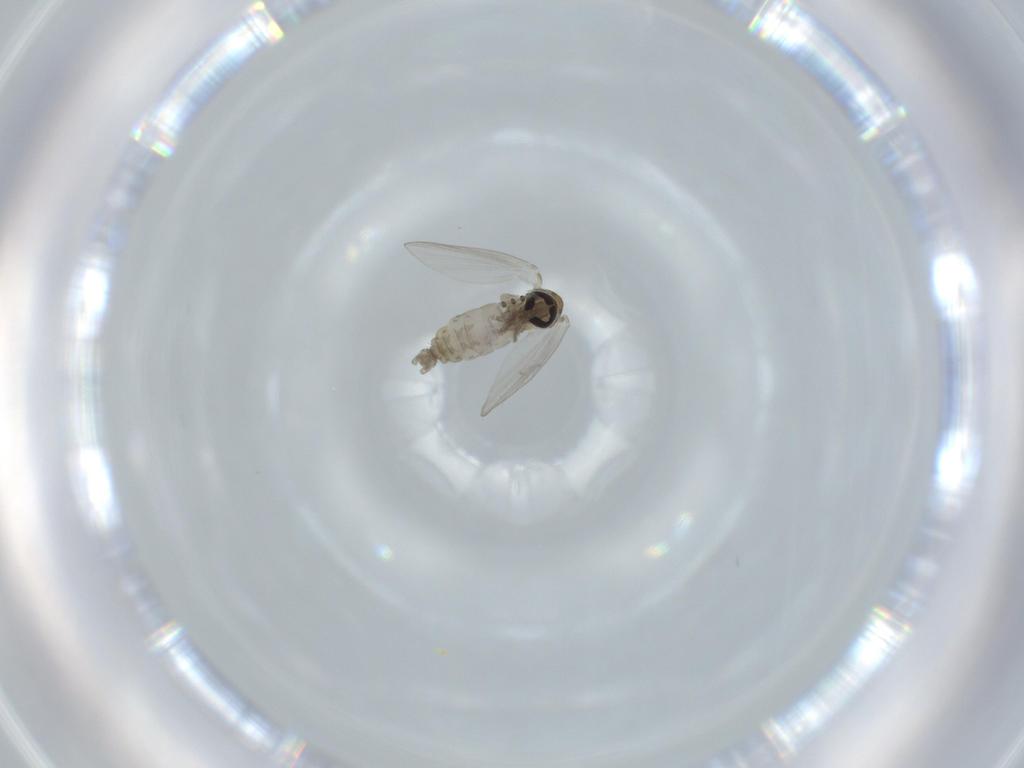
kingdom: Animalia
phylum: Arthropoda
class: Insecta
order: Diptera
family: Psychodidae
